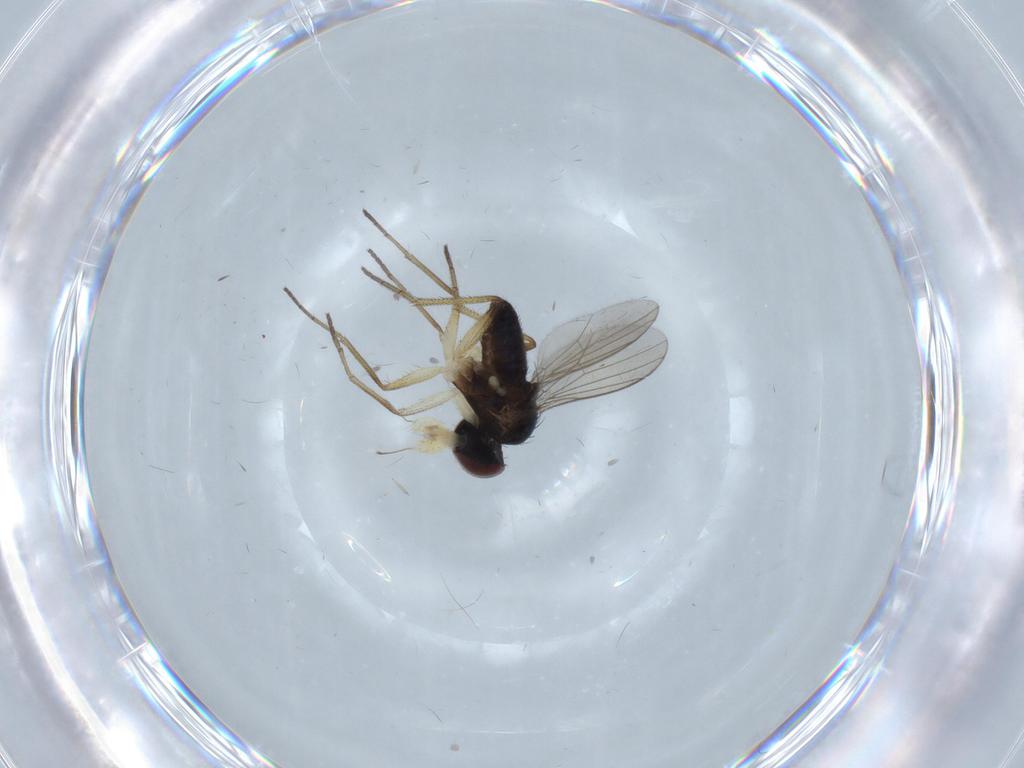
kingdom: Animalia
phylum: Arthropoda
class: Insecta
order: Diptera
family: Dolichopodidae
